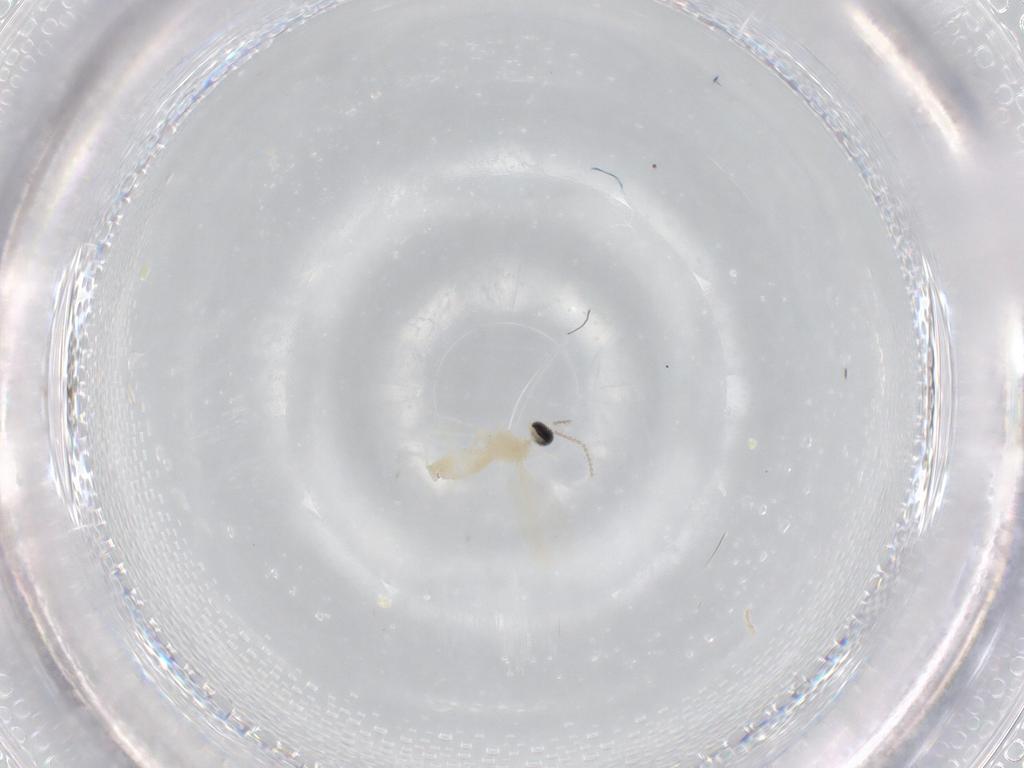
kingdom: Animalia
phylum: Arthropoda
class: Insecta
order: Diptera
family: Cecidomyiidae
